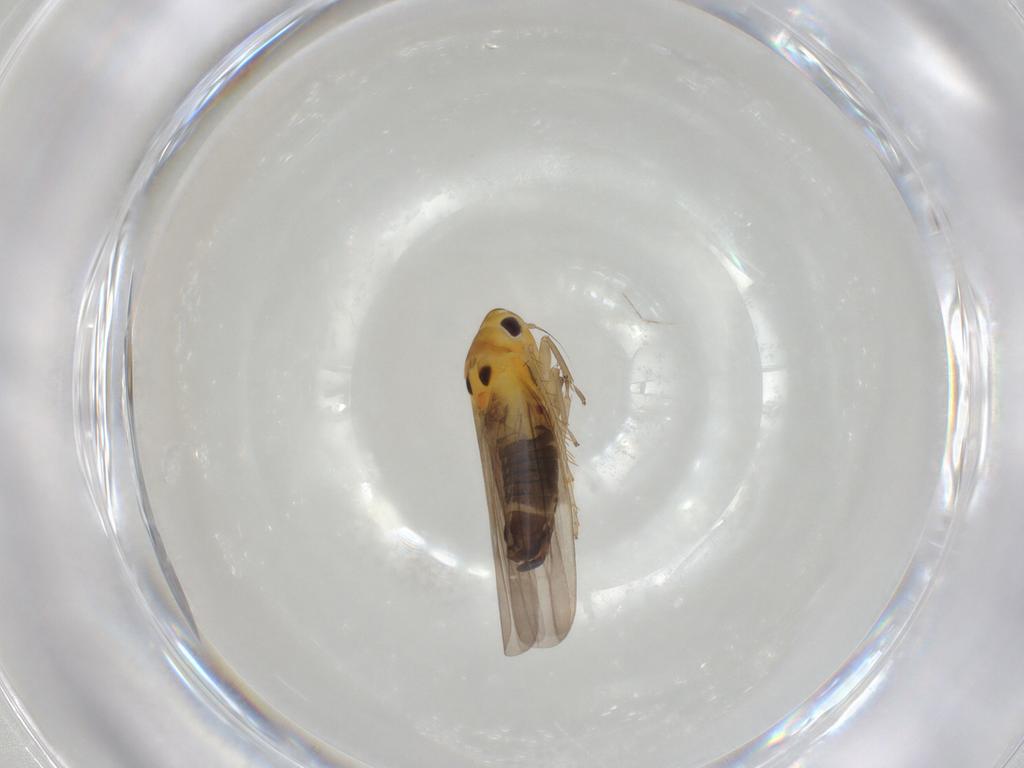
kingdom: Animalia
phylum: Arthropoda
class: Insecta
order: Hemiptera
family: Cicadellidae
